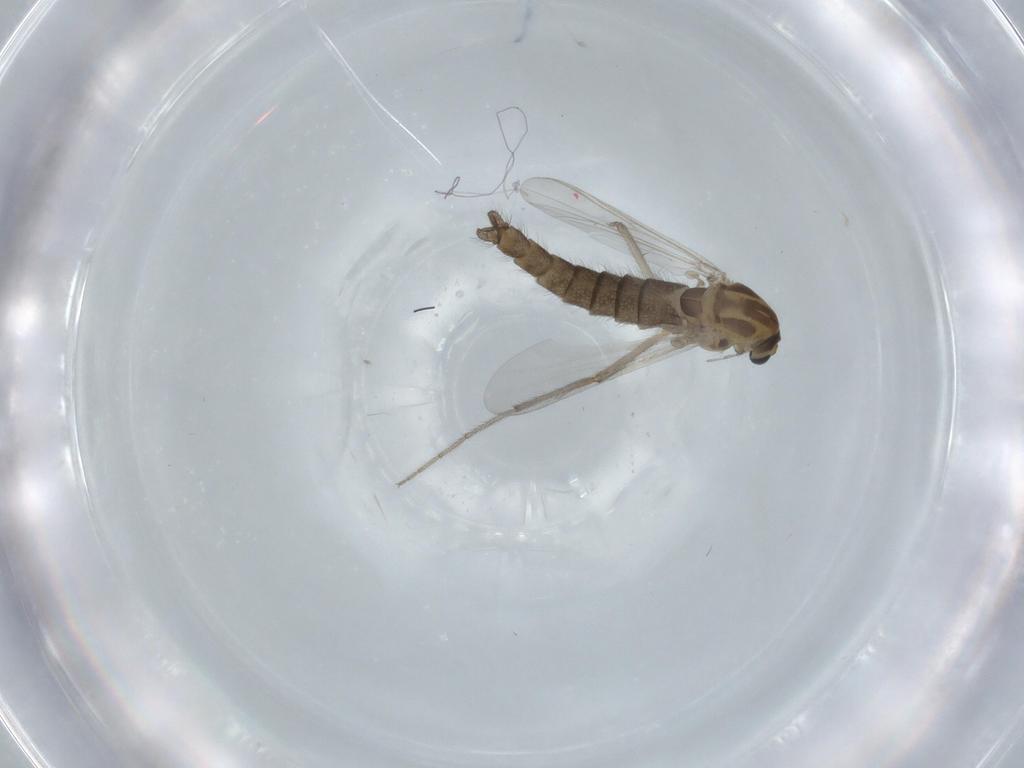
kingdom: Animalia
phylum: Arthropoda
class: Insecta
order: Diptera
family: Chironomidae
